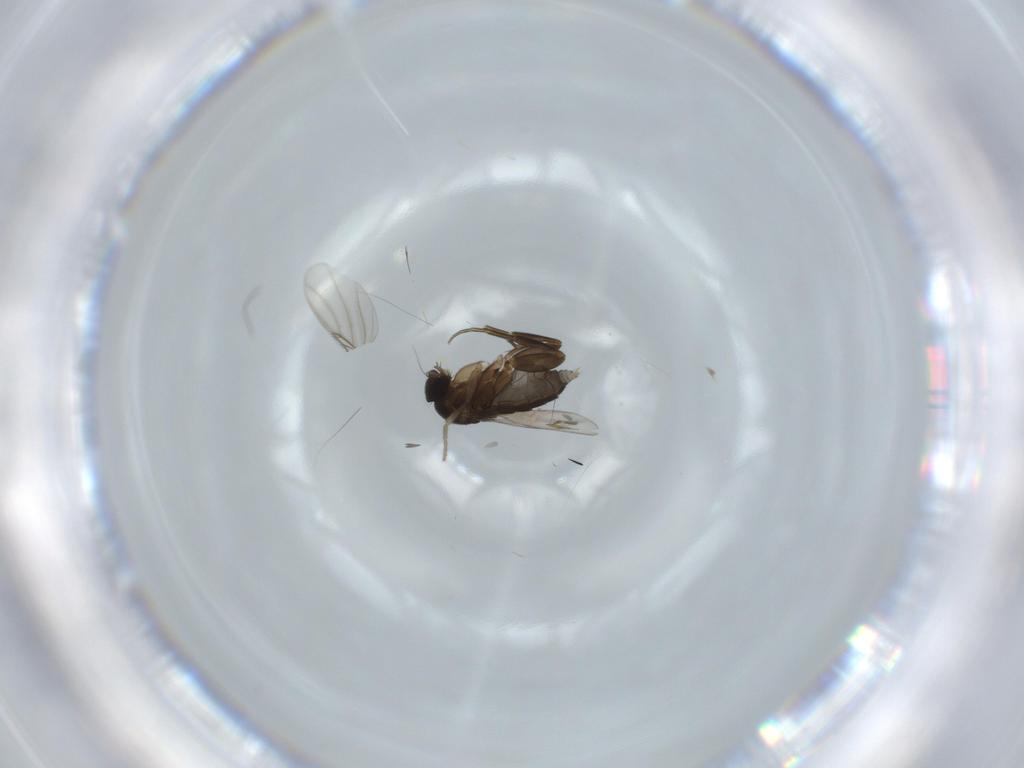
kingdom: Animalia
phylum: Arthropoda
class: Insecta
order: Diptera
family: Phoridae
